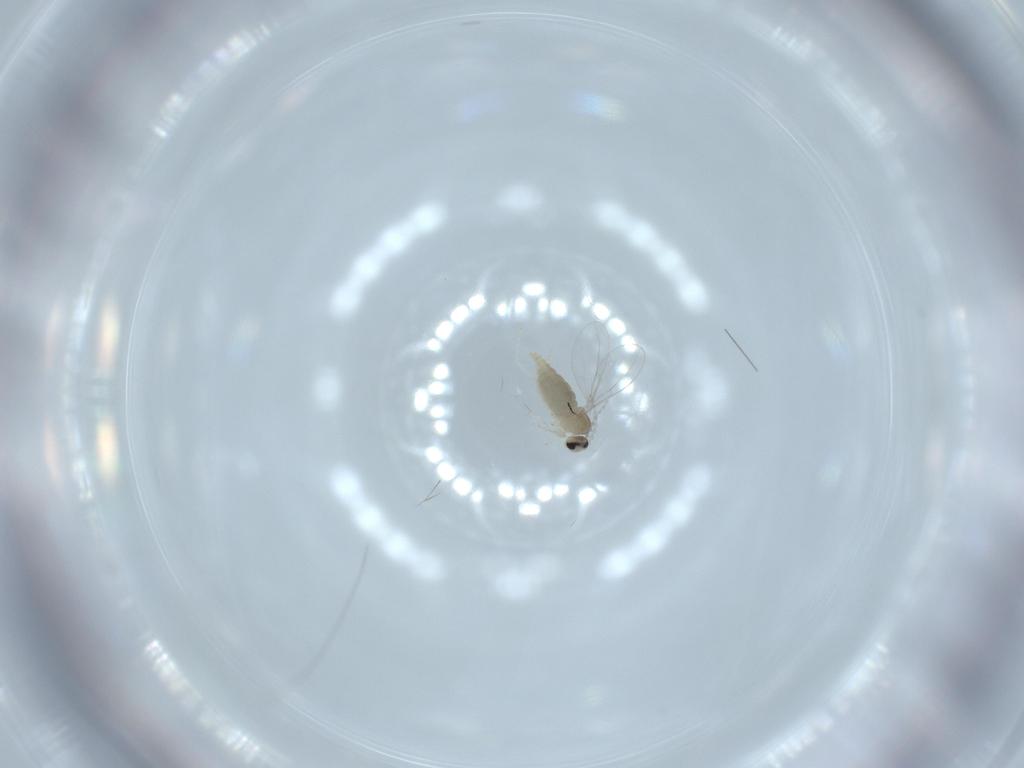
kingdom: Animalia
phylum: Arthropoda
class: Insecta
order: Diptera
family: Cecidomyiidae
